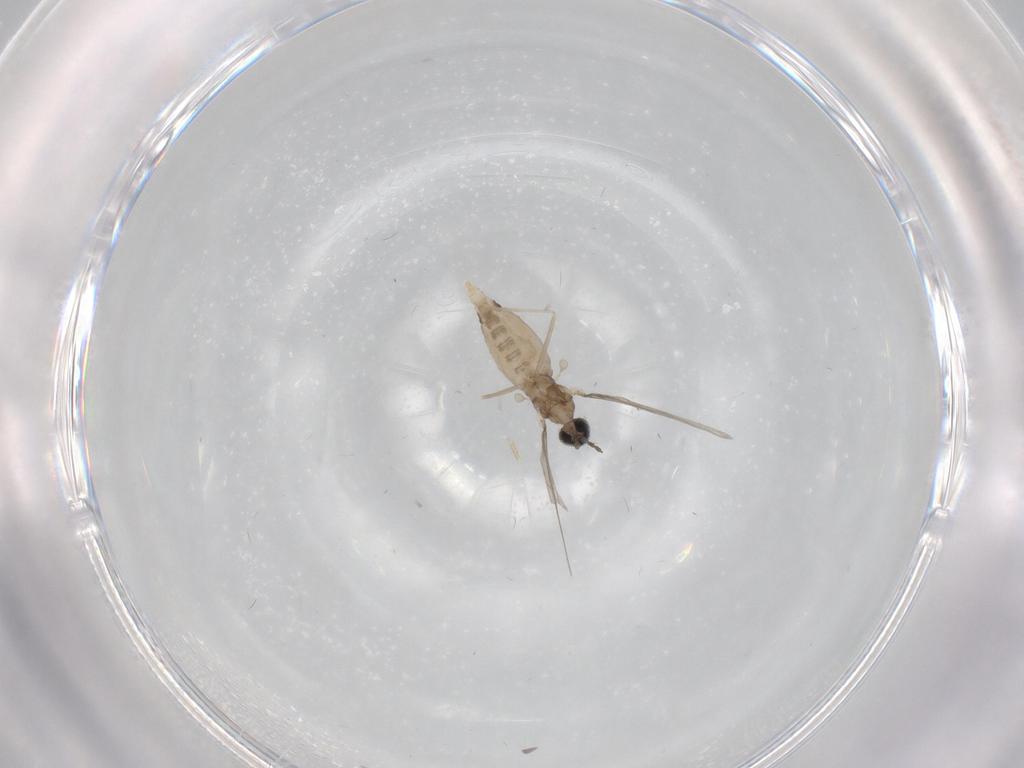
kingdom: Animalia
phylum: Arthropoda
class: Insecta
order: Diptera
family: Cecidomyiidae
